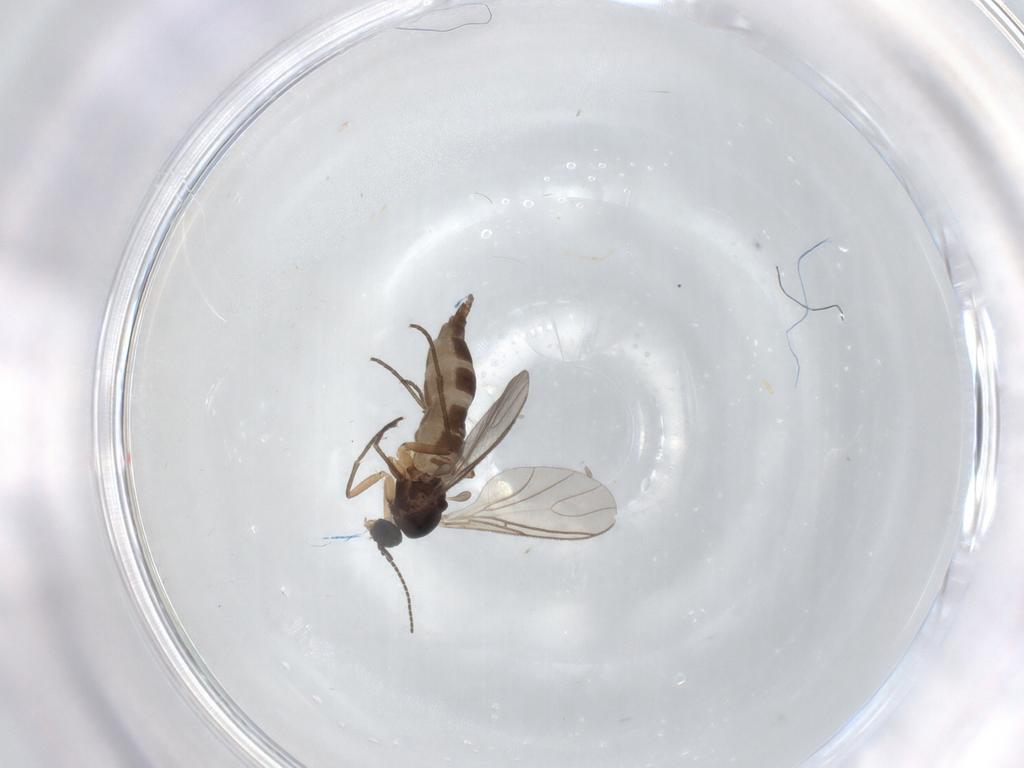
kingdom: Animalia
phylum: Arthropoda
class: Insecta
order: Diptera
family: Sciaridae
